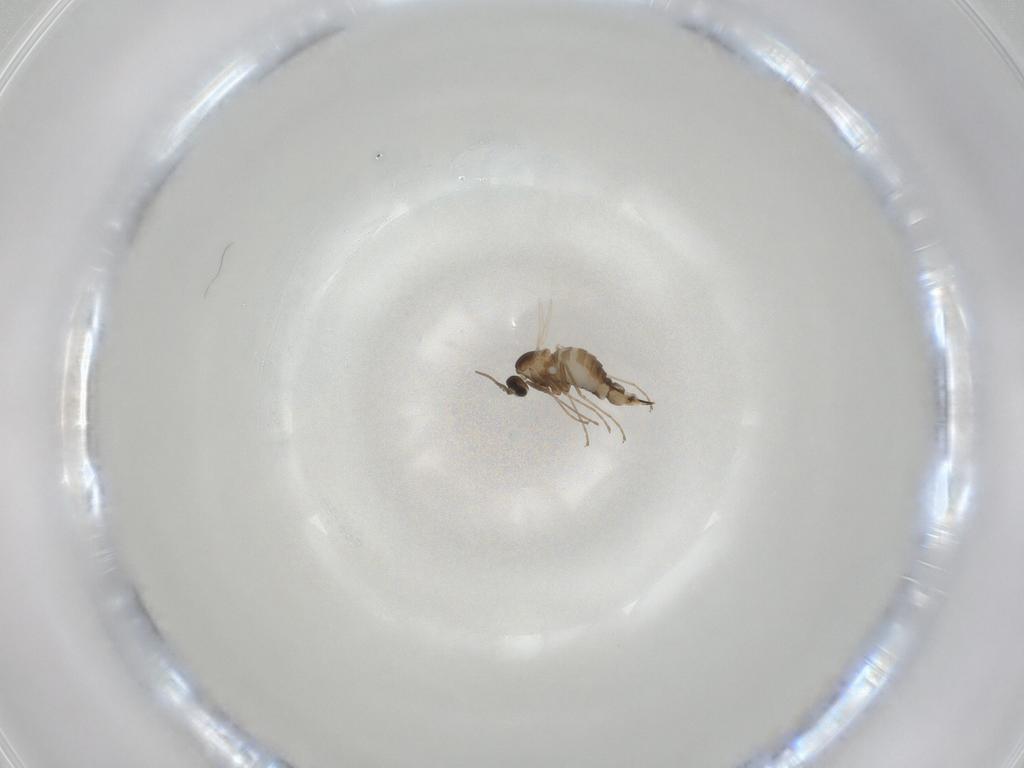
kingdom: Animalia
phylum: Arthropoda
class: Insecta
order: Diptera
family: Cecidomyiidae
